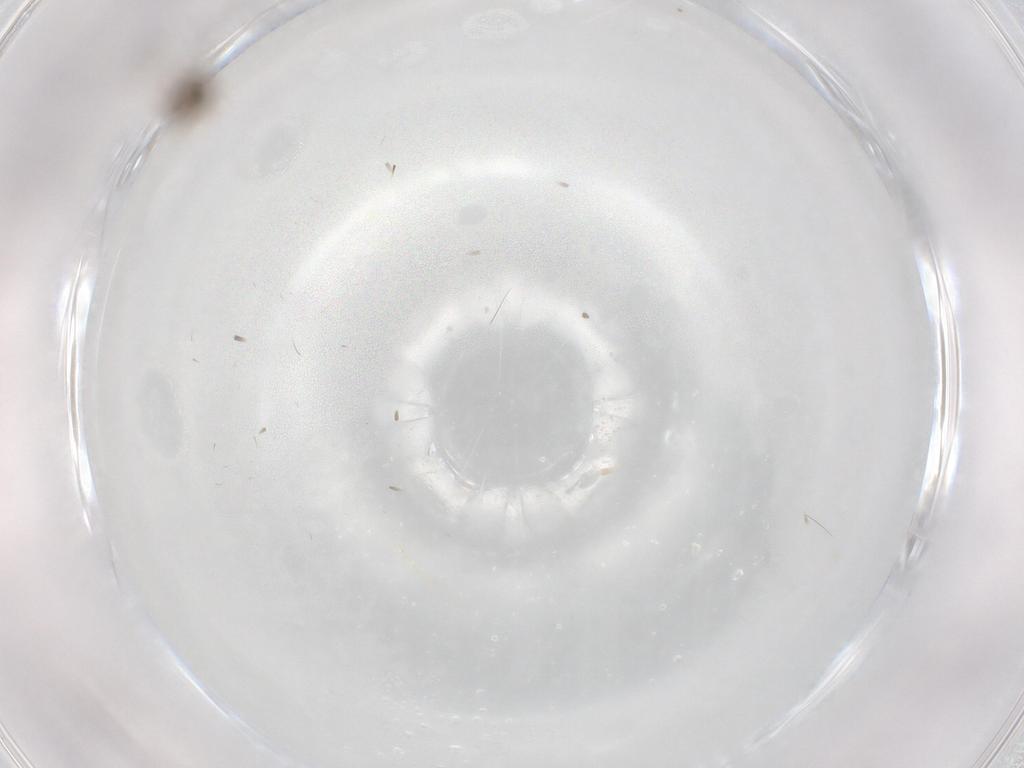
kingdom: Animalia
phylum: Arthropoda
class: Insecta
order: Diptera
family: Chironomidae
